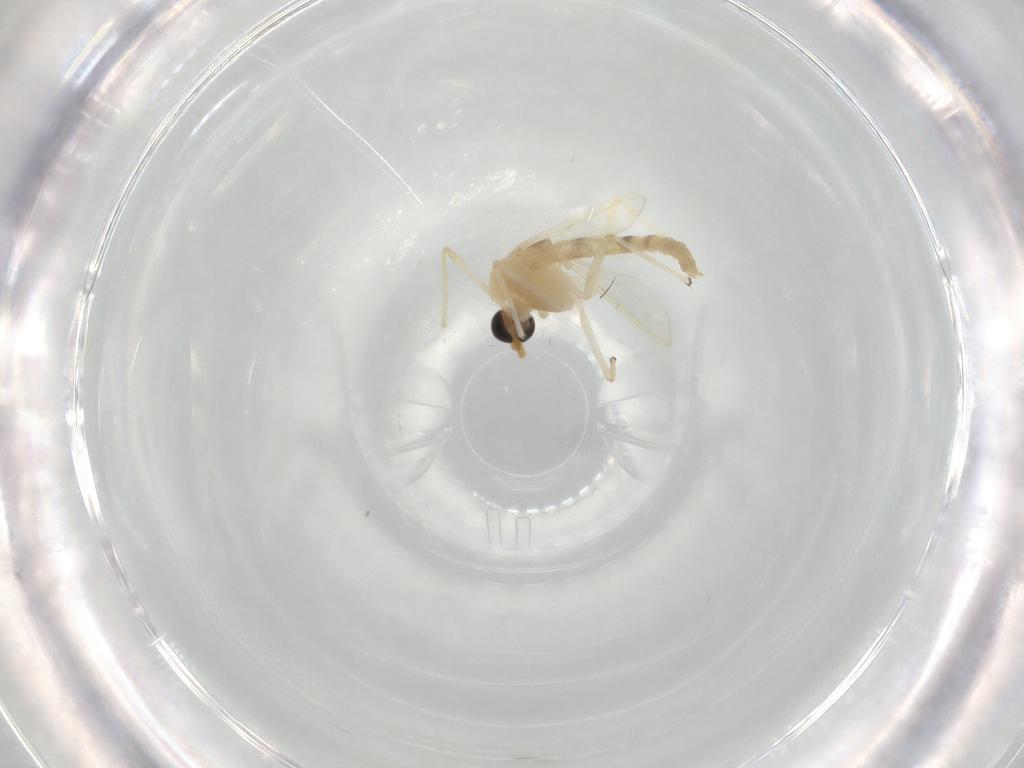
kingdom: Animalia
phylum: Arthropoda
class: Insecta
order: Diptera
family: Chironomidae
